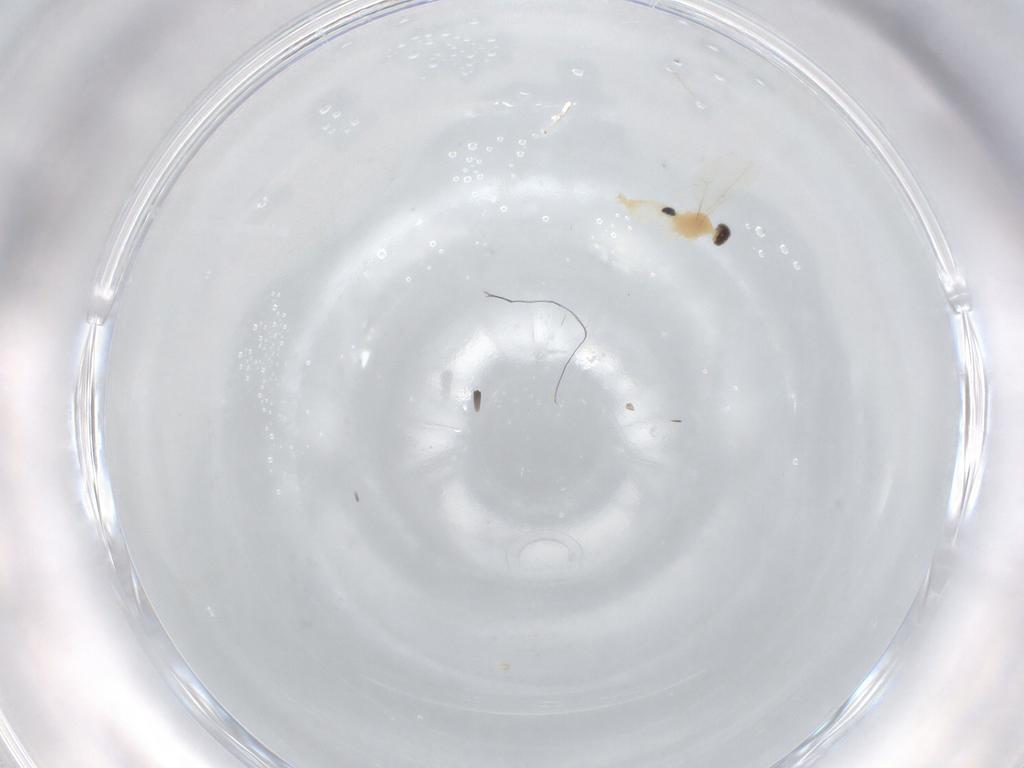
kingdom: Animalia
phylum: Arthropoda
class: Insecta
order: Diptera
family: Cecidomyiidae
